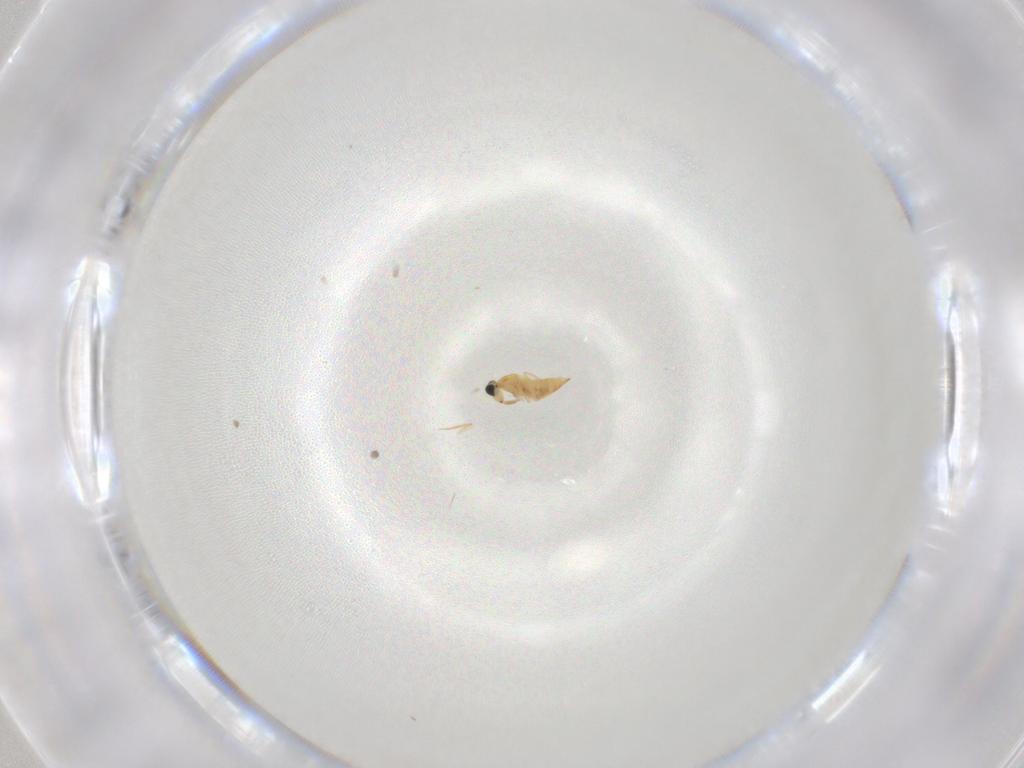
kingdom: Animalia
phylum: Arthropoda
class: Insecta
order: Hymenoptera
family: Trichogrammatidae
